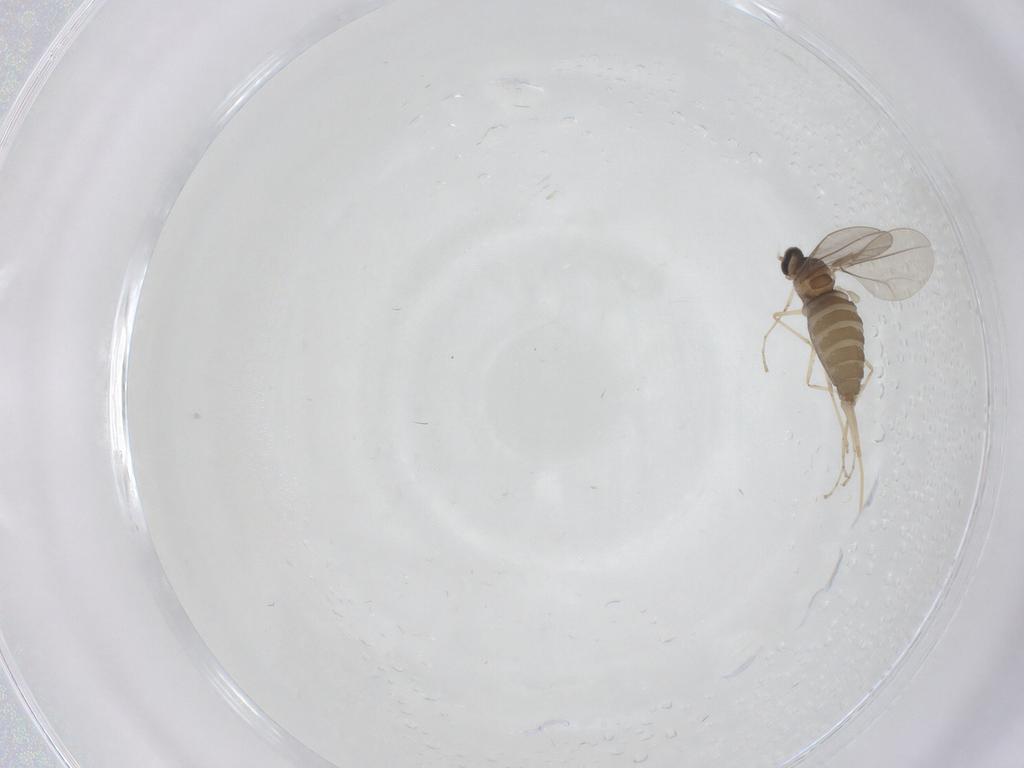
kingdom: Animalia
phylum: Arthropoda
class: Insecta
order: Diptera
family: Cecidomyiidae
